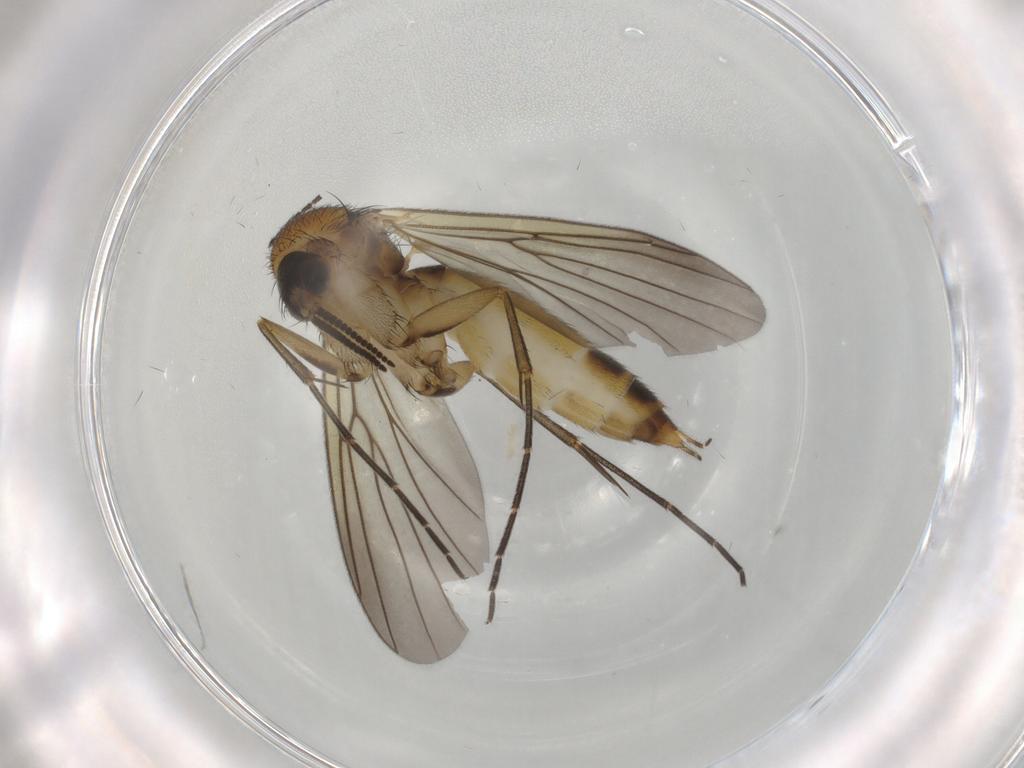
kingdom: Animalia
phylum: Arthropoda
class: Insecta
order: Diptera
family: Mycetophilidae
